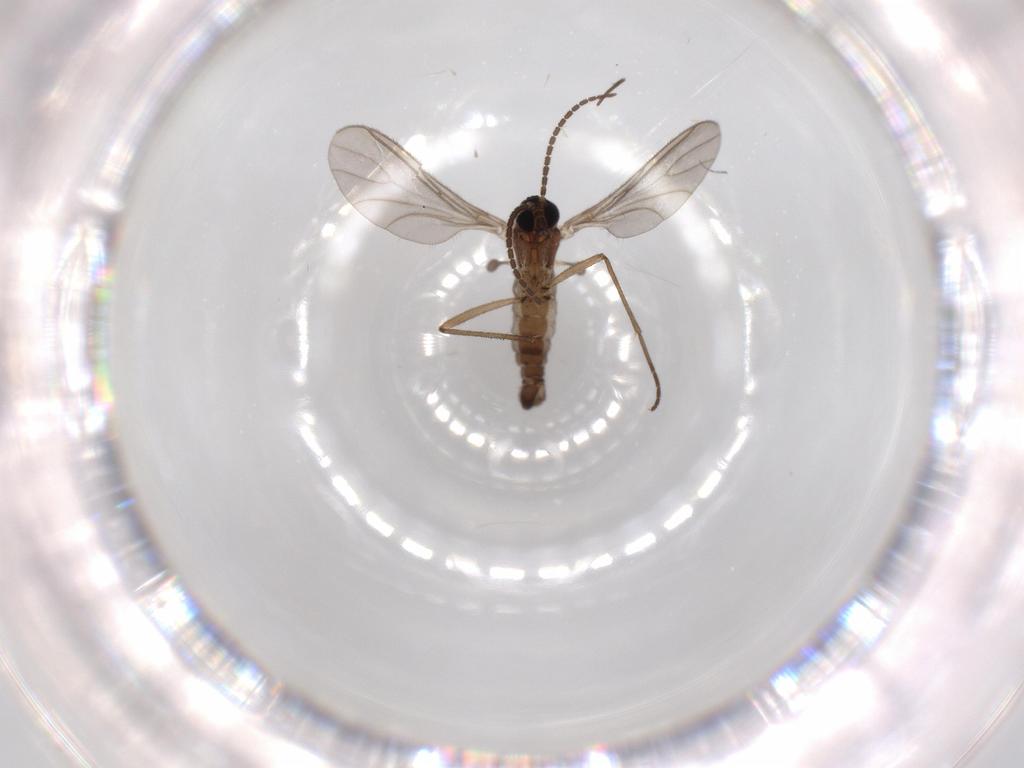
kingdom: Animalia
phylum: Arthropoda
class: Insecta
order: Diptera
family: Sciaridae
